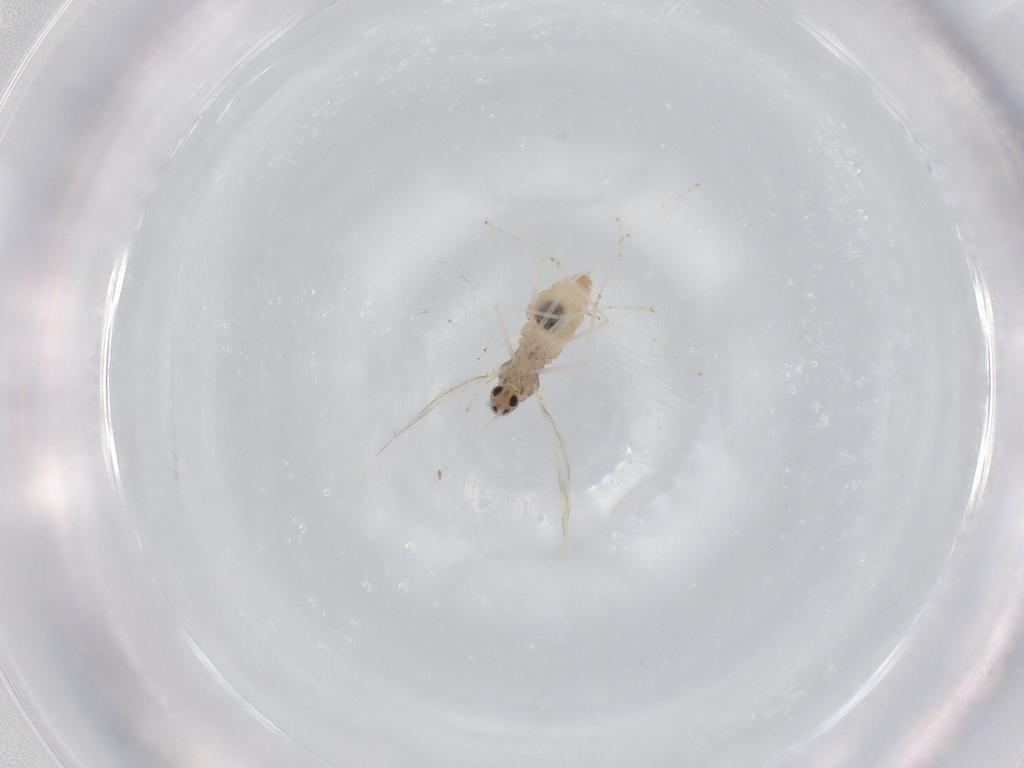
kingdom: Animalia
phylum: Arthropoda
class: Insecta
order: Diptera
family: Cecidomyiidae
